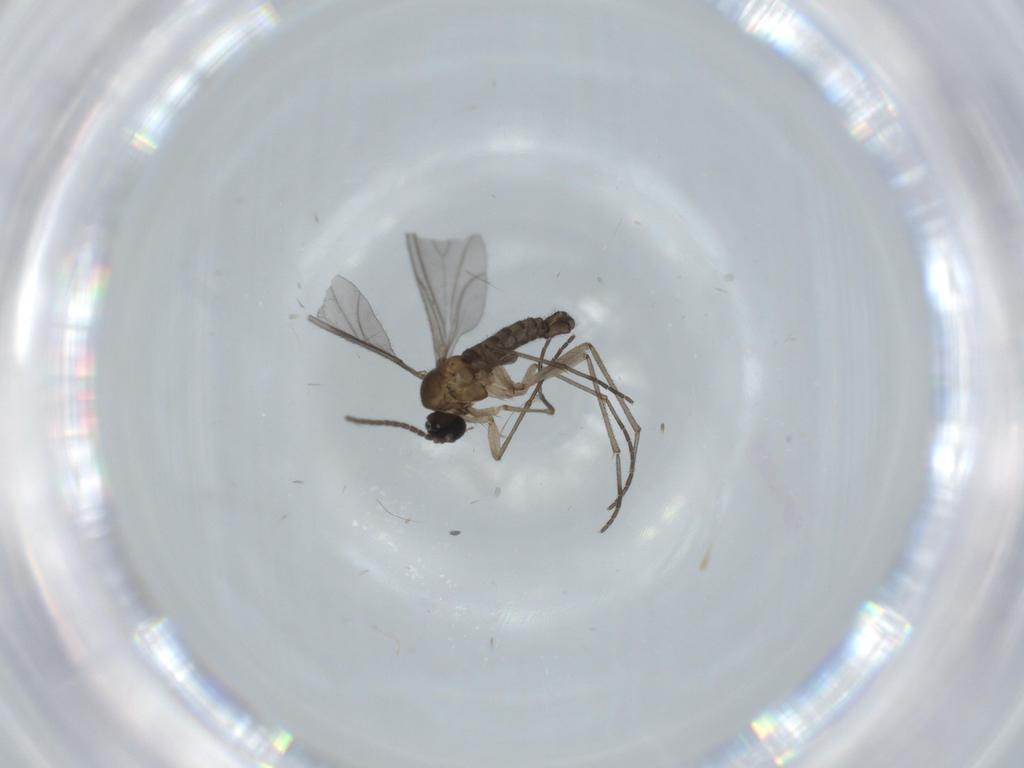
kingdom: Animalia
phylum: Arthropoda
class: Insecta
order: Diptera
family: Sciaridae
